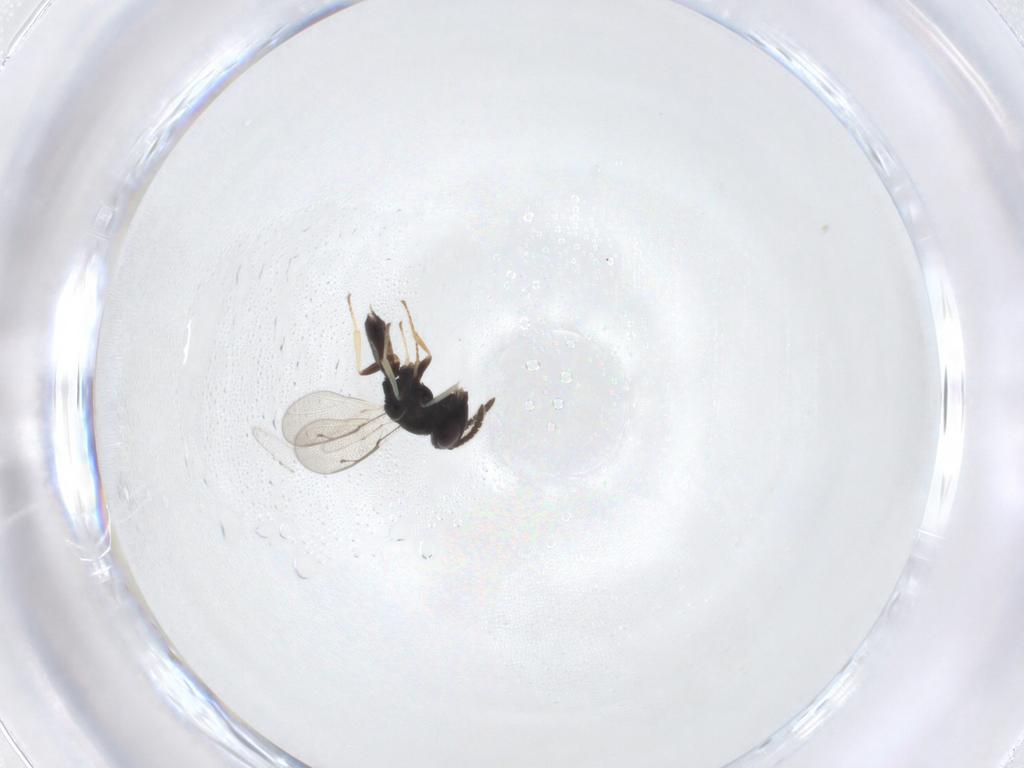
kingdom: Animalia
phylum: Arthropoda
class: Insecta
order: Hymenoptera
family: Pteromalidae
